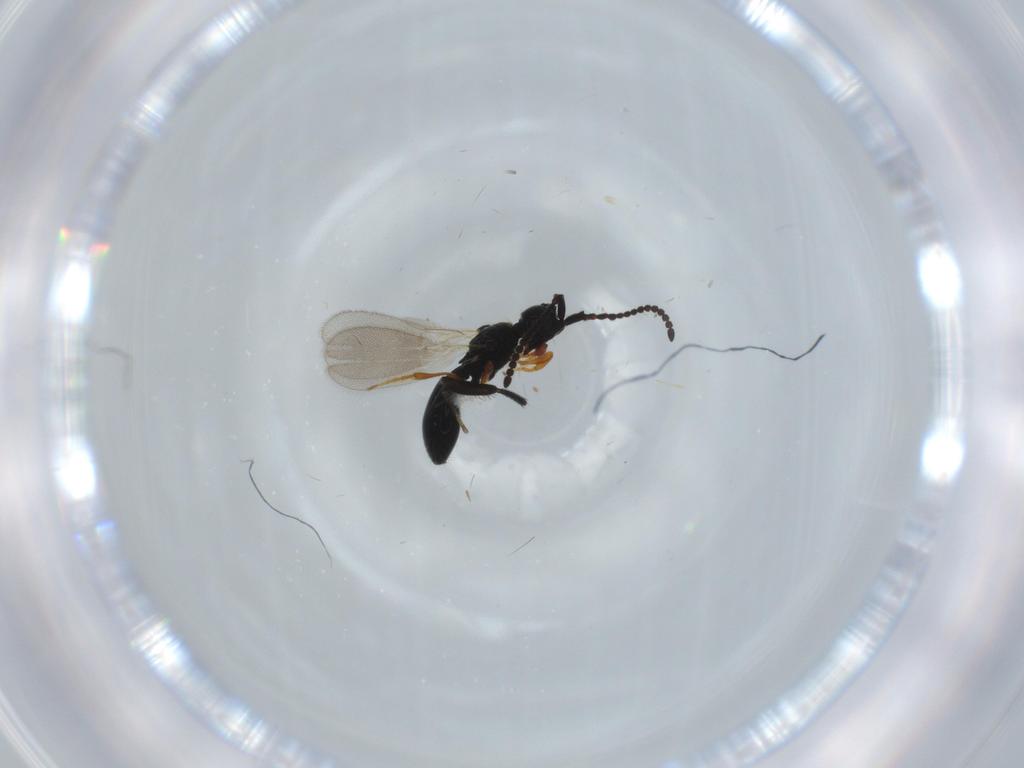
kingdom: Animalia
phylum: Arthropoda
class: Insecta
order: Hymenoptera
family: Diapriidae
